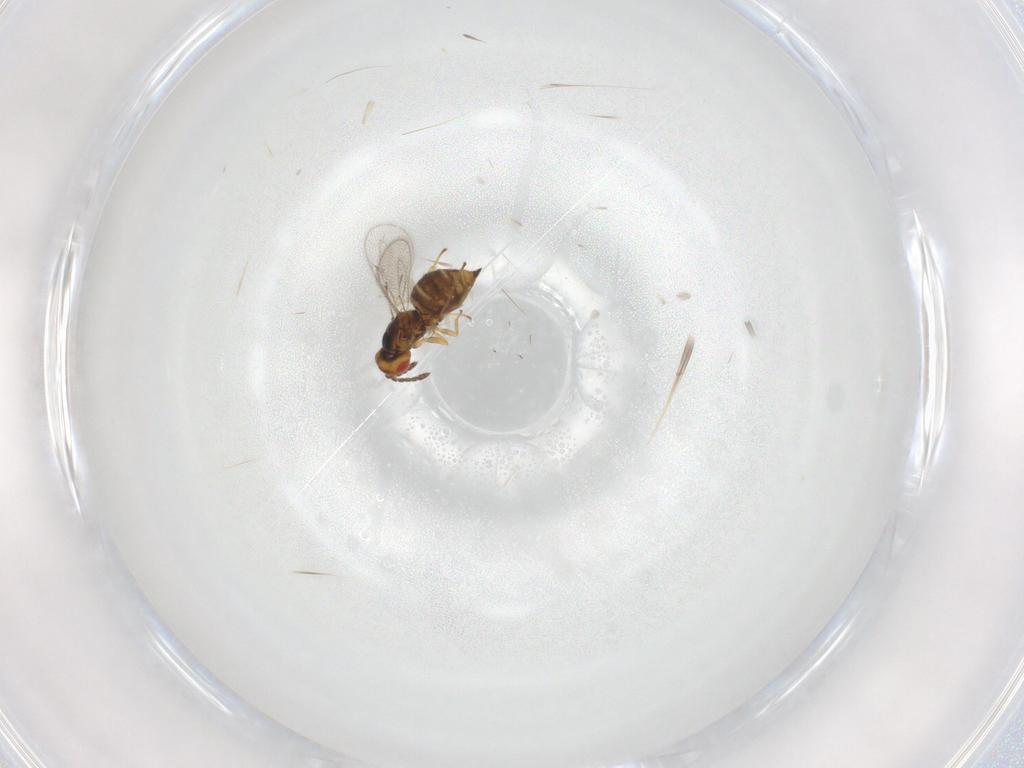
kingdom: Animalia
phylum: Arthropoda
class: Insecta
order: Hymenoptera
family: Eulophidae
